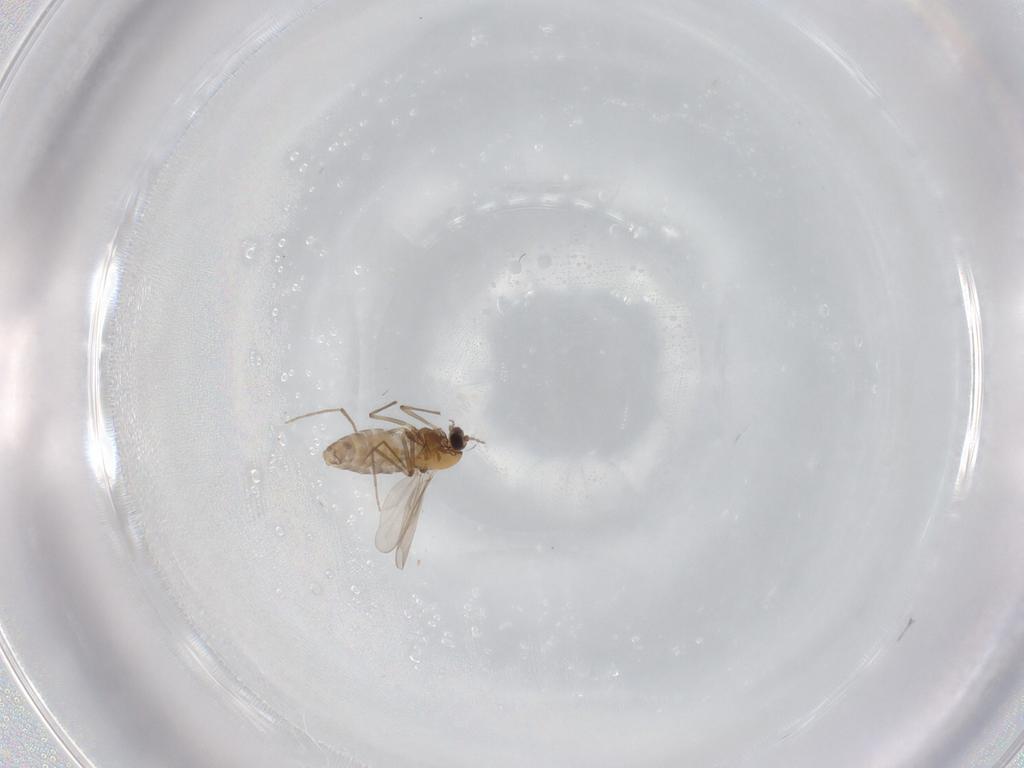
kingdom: Animalia
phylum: Arthropoda
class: Insecta
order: Diptera
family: Chironomidae
